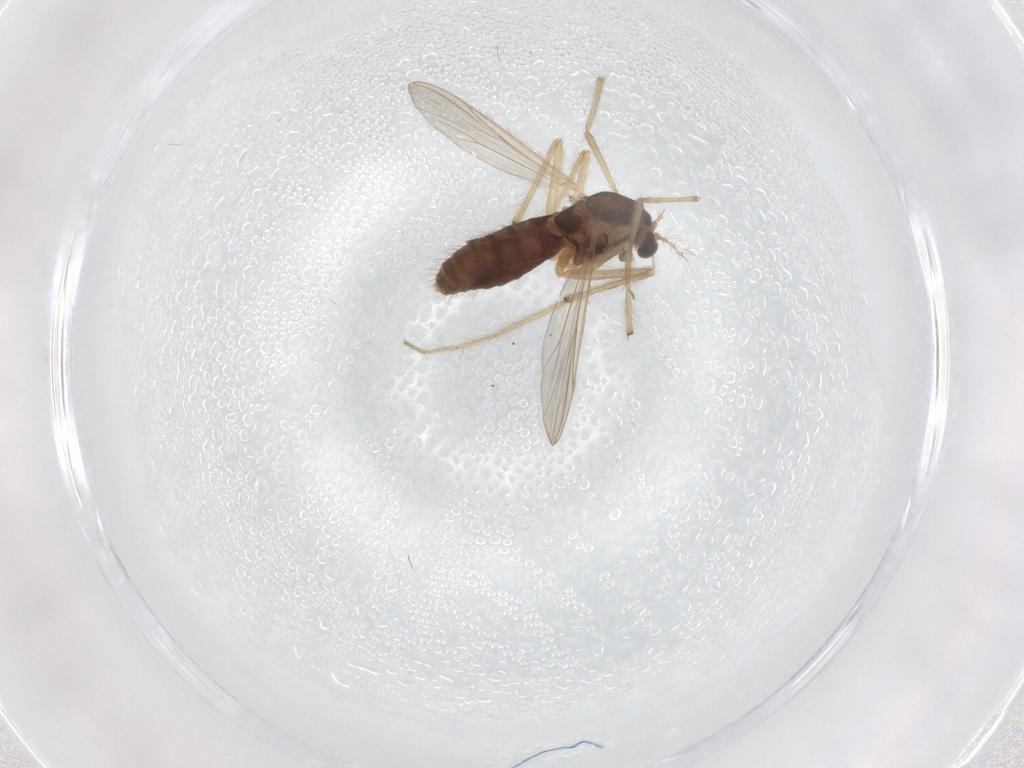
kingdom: Animalia
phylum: Arthropoda
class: Insecta
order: Diptera
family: Chironomidae
